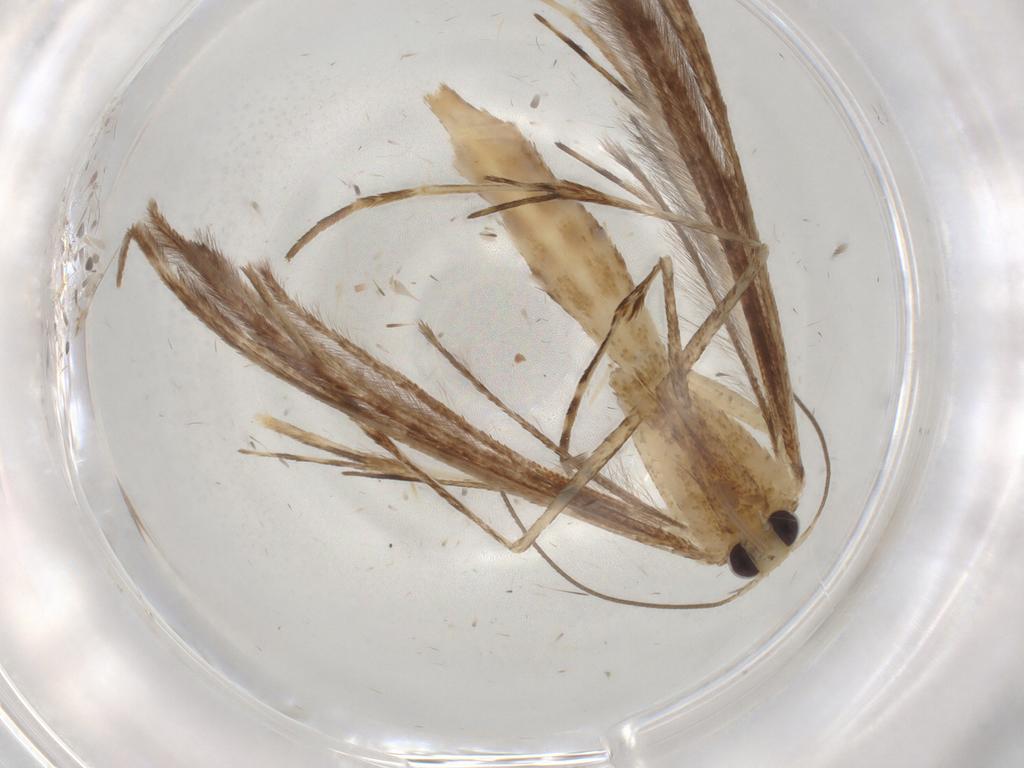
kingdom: Animalia
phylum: Arthropoda
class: Insecta
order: Lepidoptera
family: Pterophoridae
